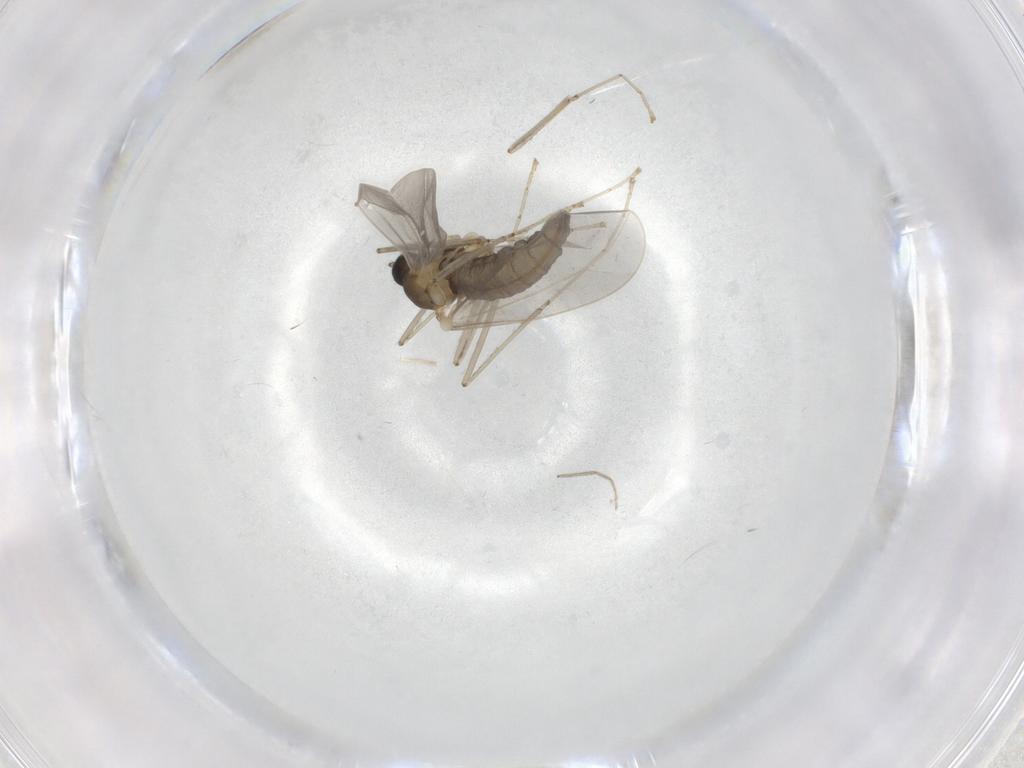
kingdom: Animalia
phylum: Arthropoda
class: Insecta
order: Diptera
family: Cecidomyiidae
